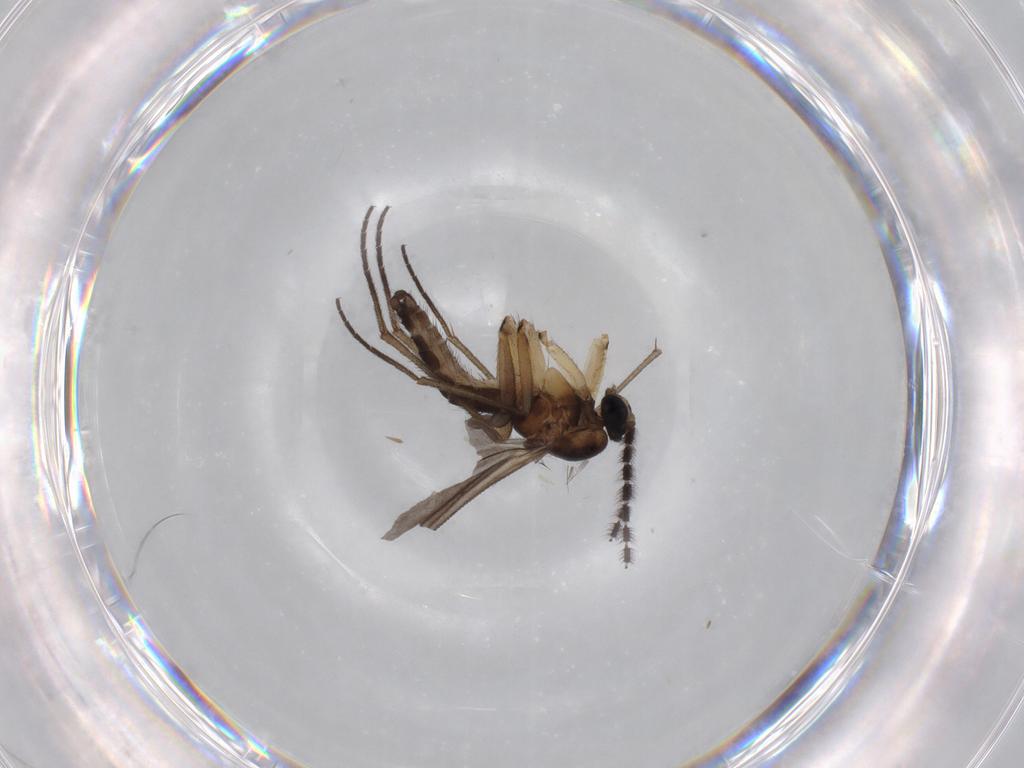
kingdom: Animalia
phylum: Arthropoda
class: Insecta
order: Diptera
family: Sciaridae
